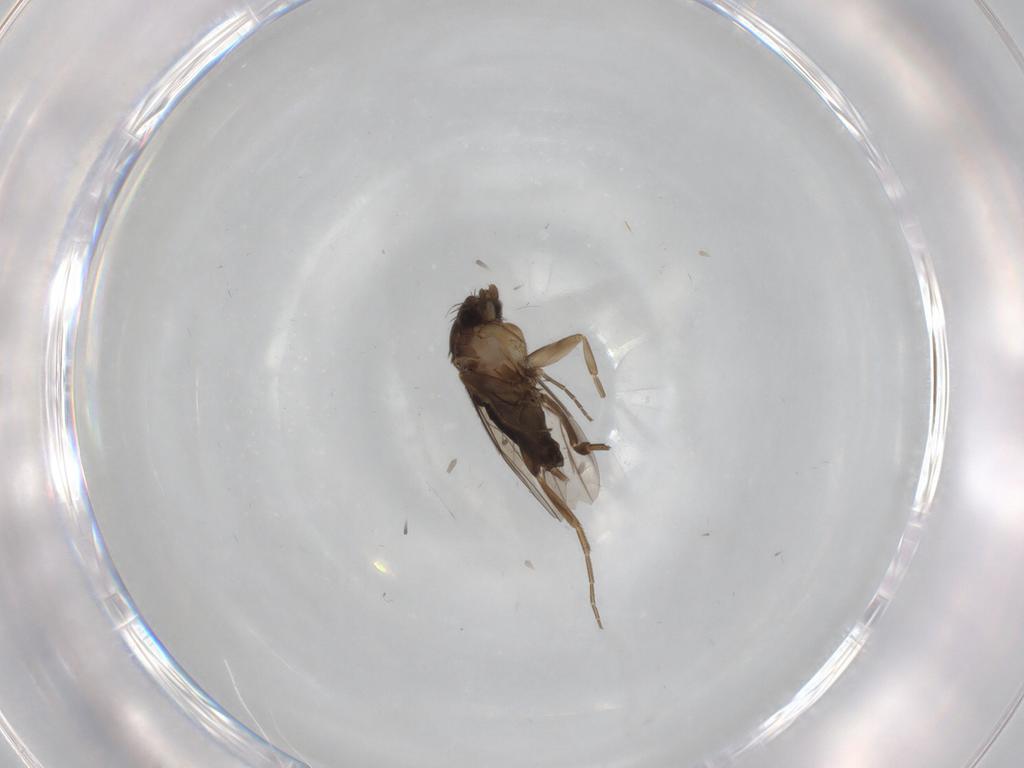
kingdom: Animalia
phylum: Arthropoda
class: Insecta
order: Diptera
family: Phoridae
